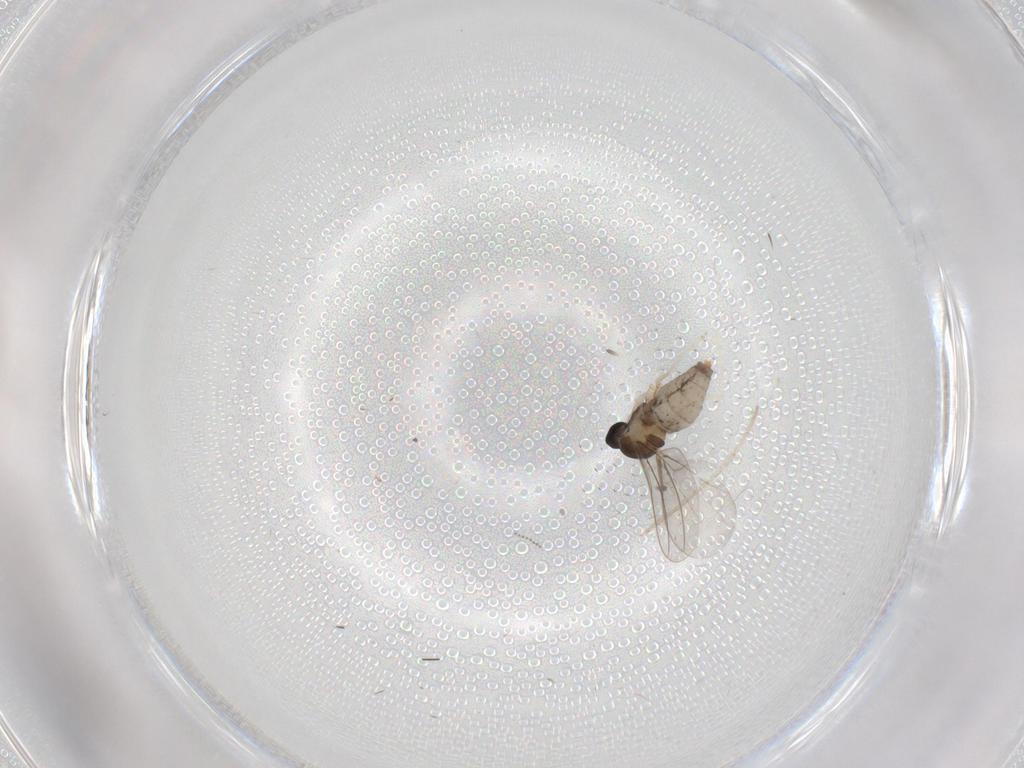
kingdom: Animalia
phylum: Arthropoda
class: Insecta
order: Diptera
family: Cecidomyiidae
